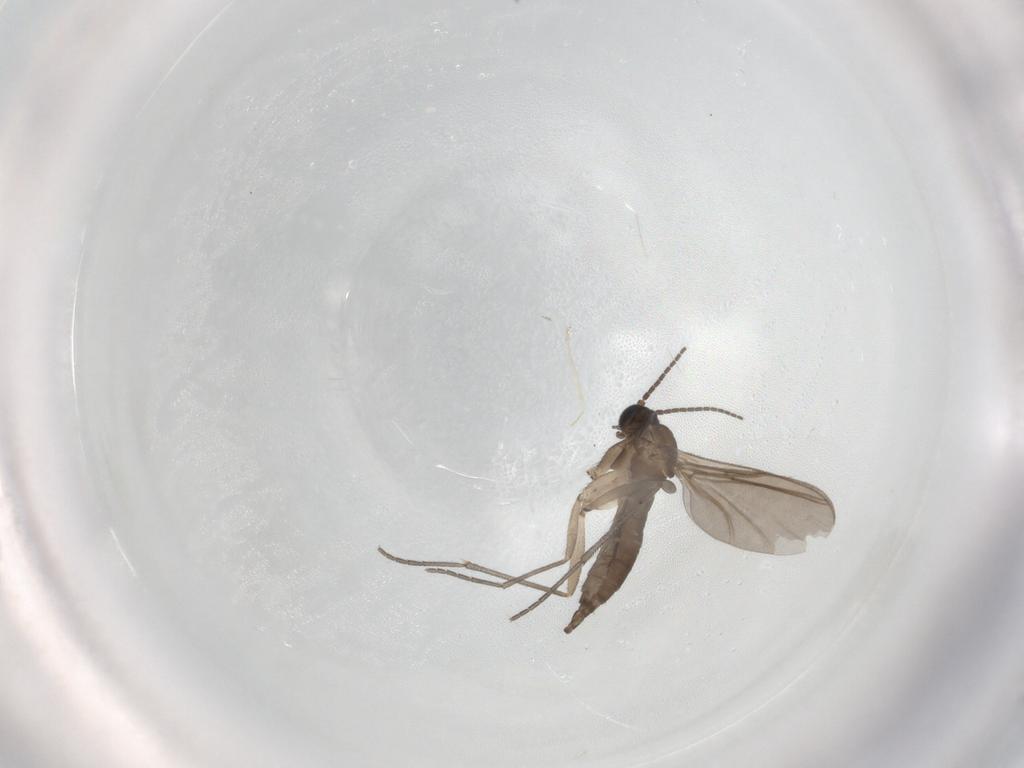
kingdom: Animalia
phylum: Arthropoda
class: Insecta
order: Diptera
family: Sciaridae
